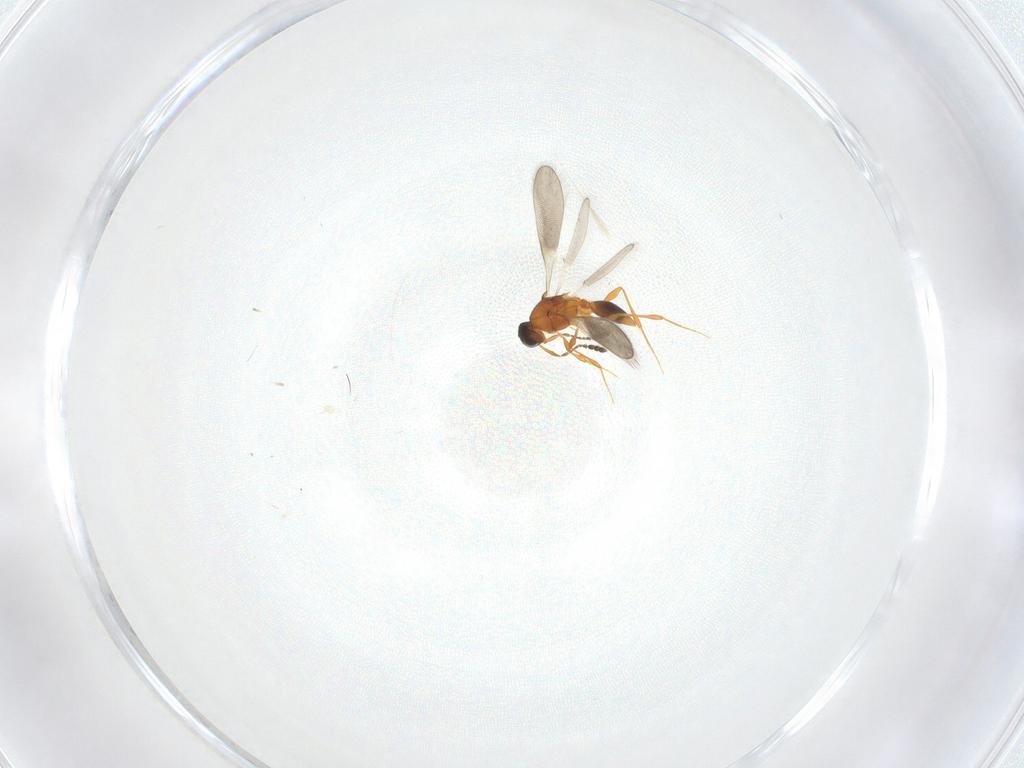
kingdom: Animalia
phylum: Arthropoda
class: Insecta
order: Hymenoptera
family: Platygastridae
